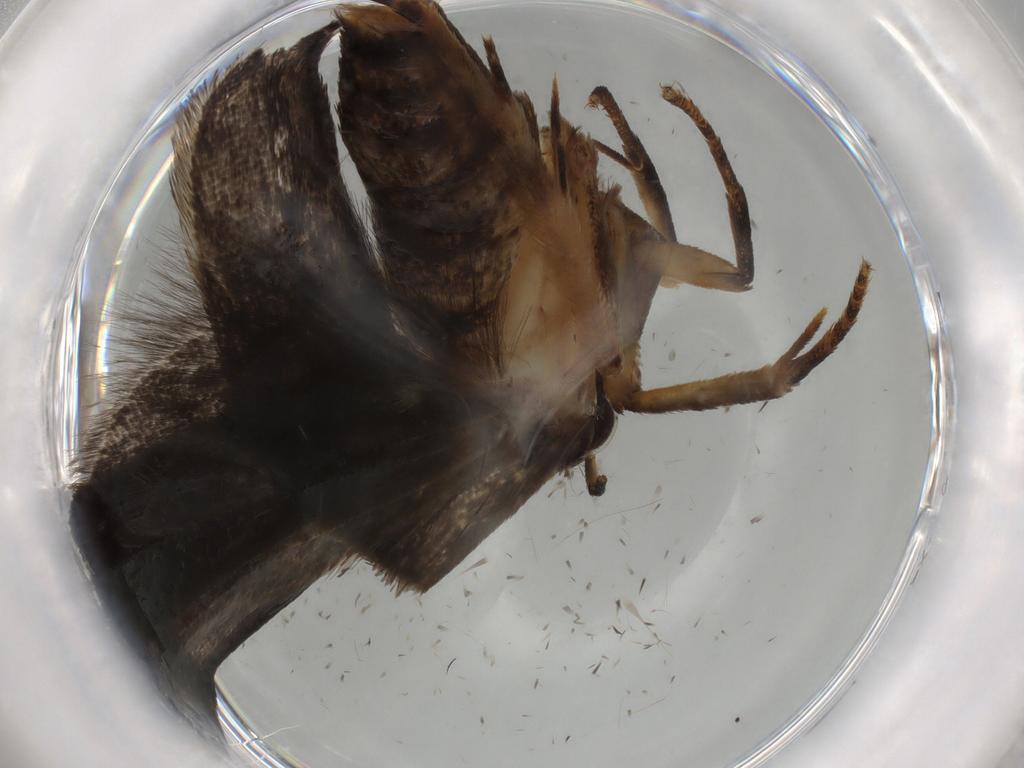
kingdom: Animalia
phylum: Arthropoda
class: Insecta
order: Lepidoptera
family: Gelechiidae
